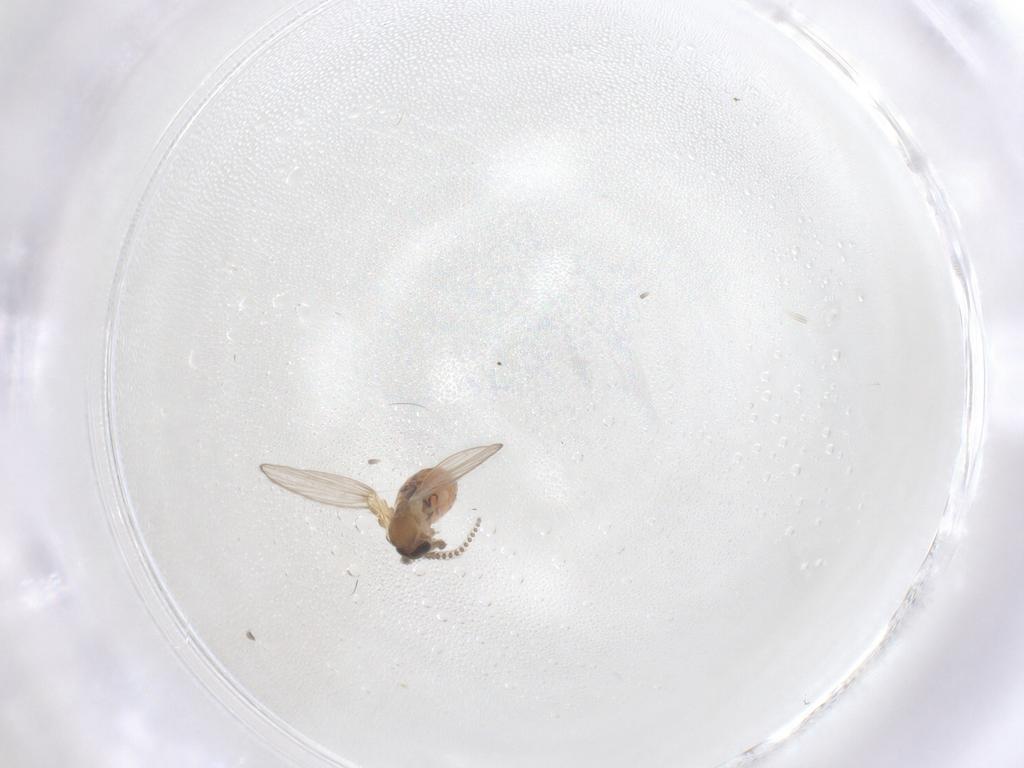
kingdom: Animalia
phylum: Arthropoda
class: Insecta
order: Diptera
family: Psychodidae
